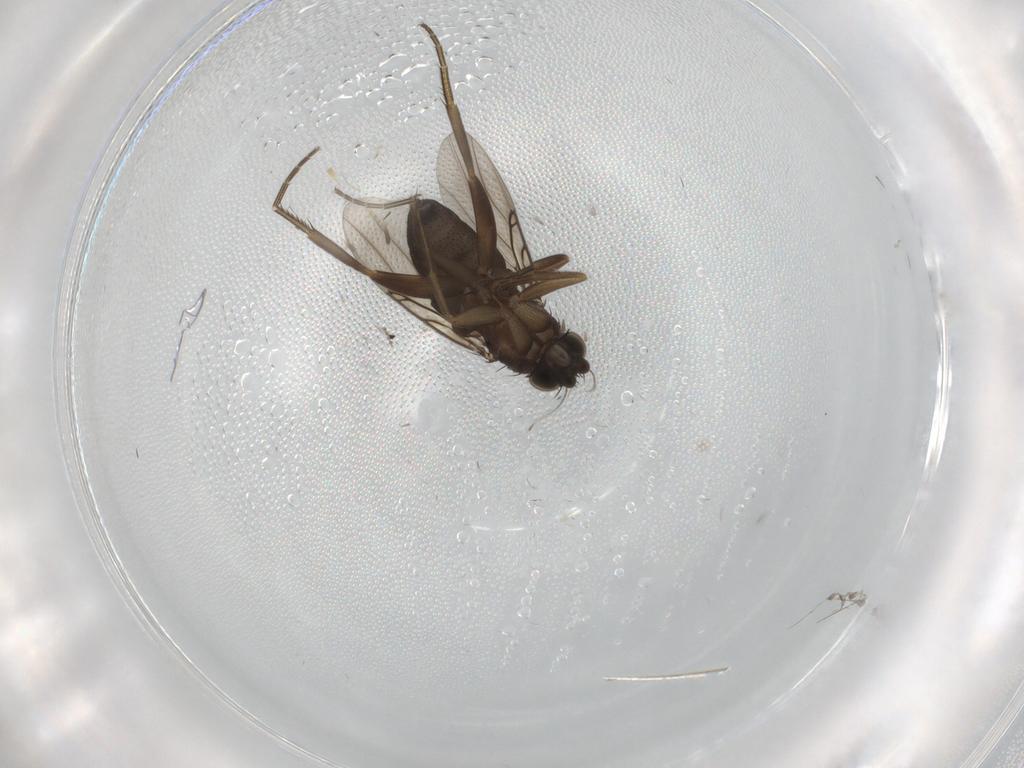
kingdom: Animalia
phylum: Arthropoda
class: Insecta
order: Diptera
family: Phoridae
